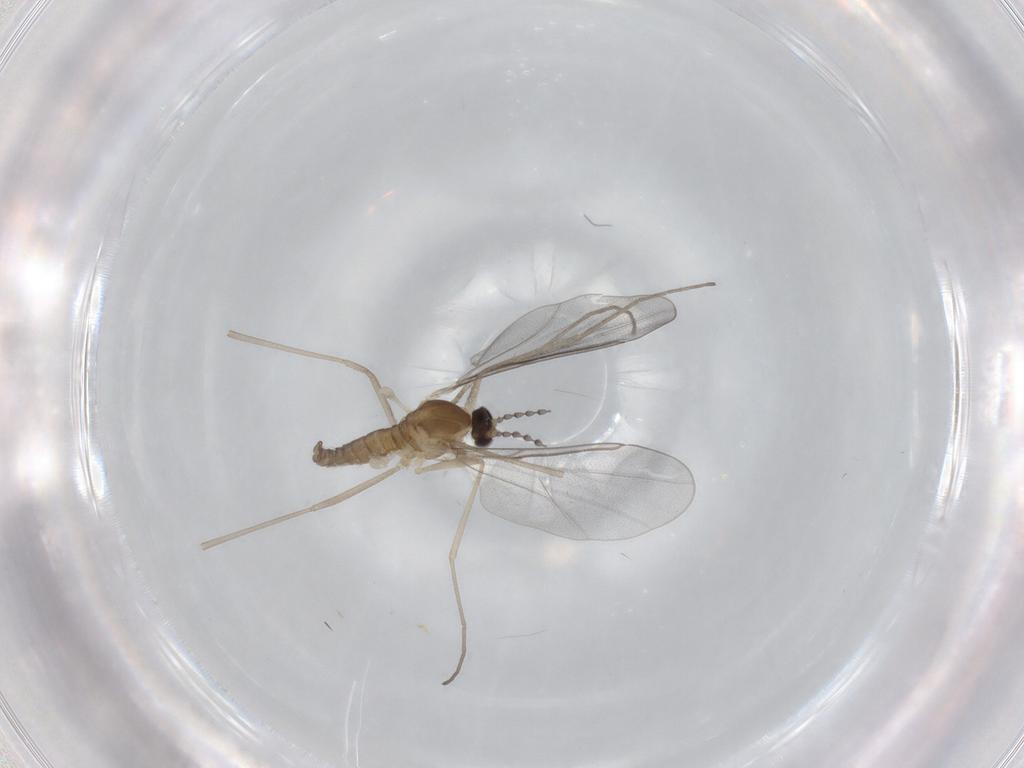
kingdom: Animalia
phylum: Arthropoda
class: Insecta
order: Diptera
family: Cecidomyiidae
